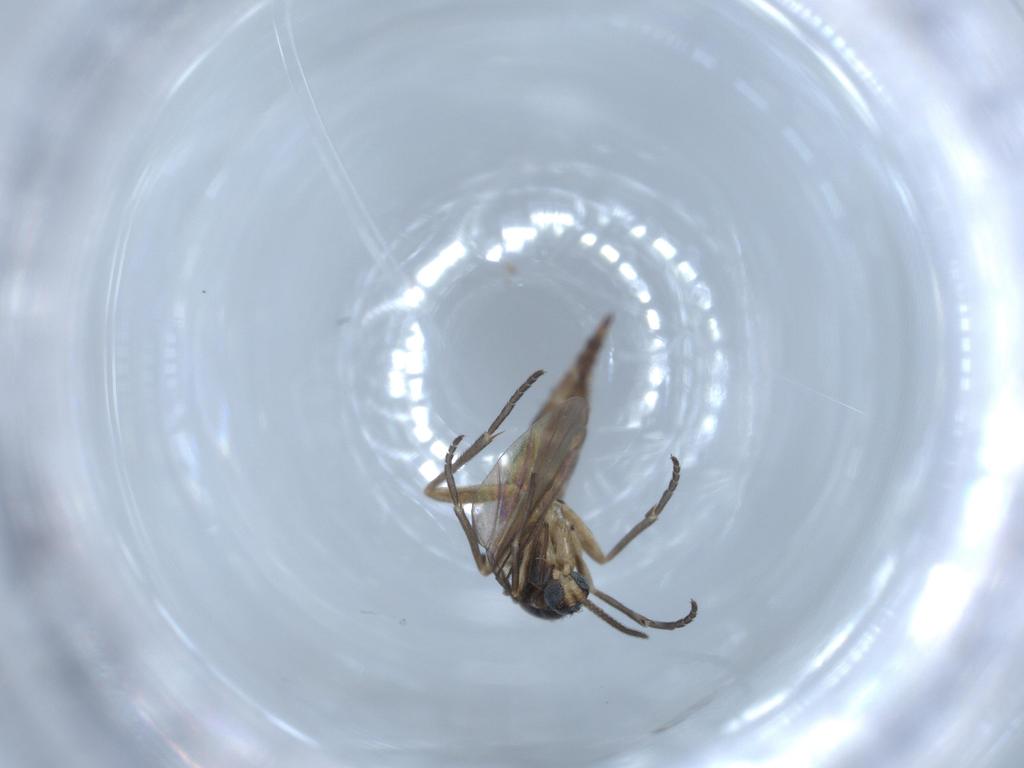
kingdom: Animalia
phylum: Arthropoda
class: Insecta
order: Diptera
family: Sciaridae
